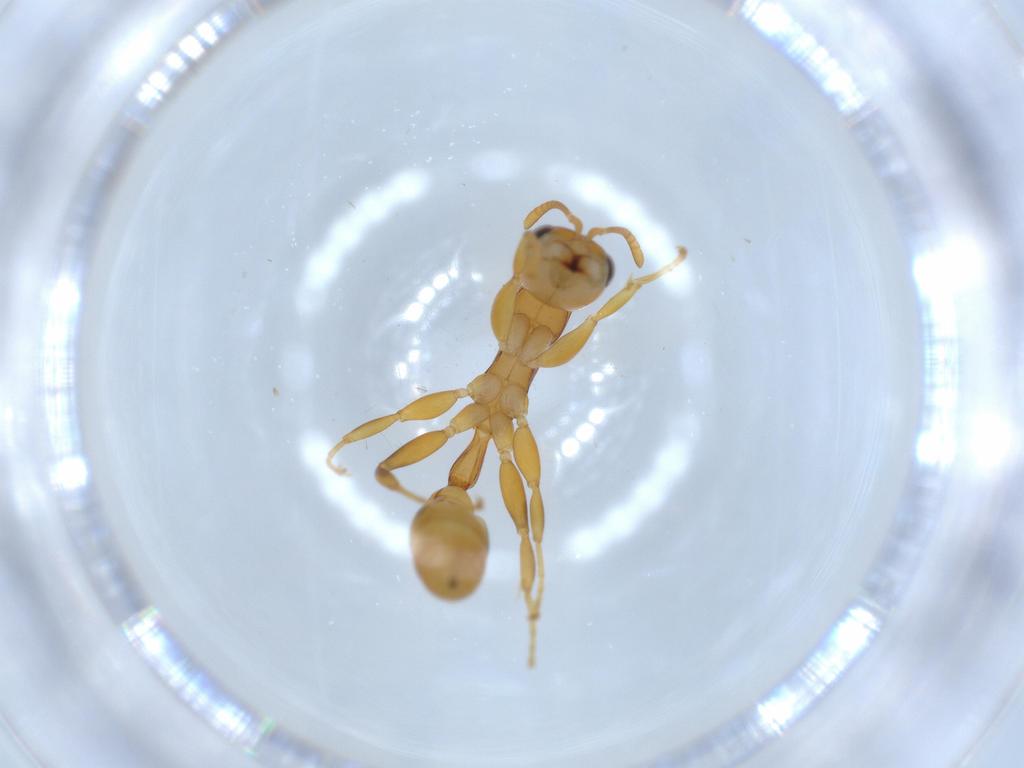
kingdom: Animalia
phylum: Arthropoda
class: Insecta
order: Hymenoptera
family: Formicidae
